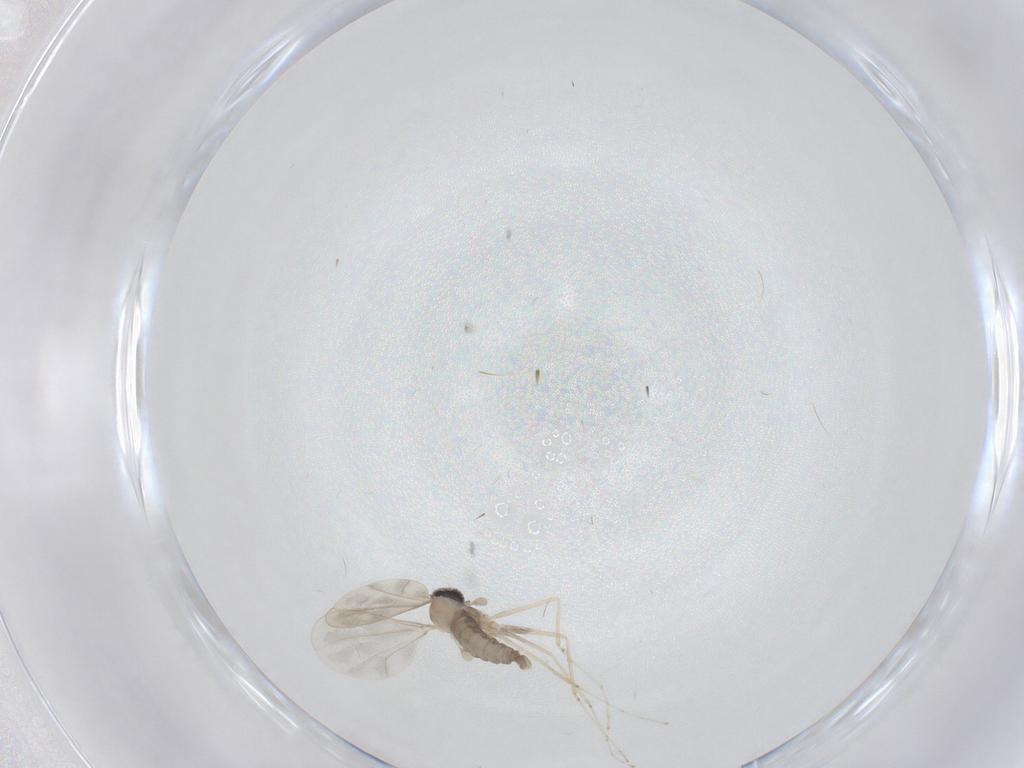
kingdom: Animalia
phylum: Arthropoda
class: Insecta
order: Diptera
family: Cecidomyiidae
